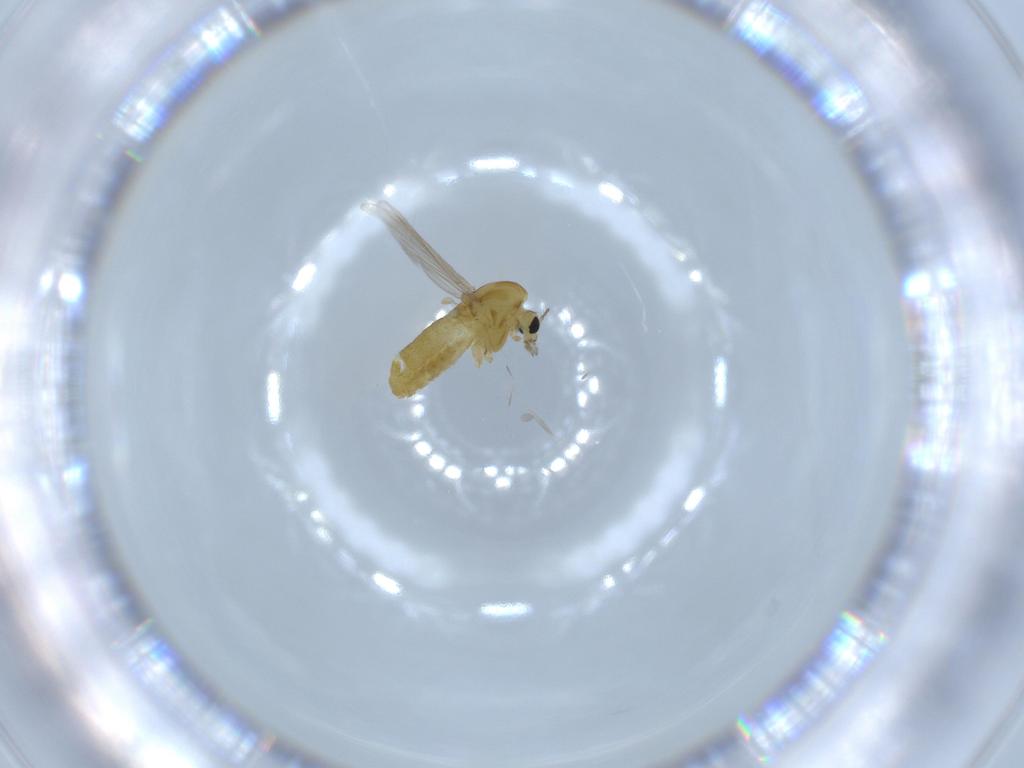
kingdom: Animalia
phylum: Arthropoda
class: Insecta
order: Diptera
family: Chironomidae
